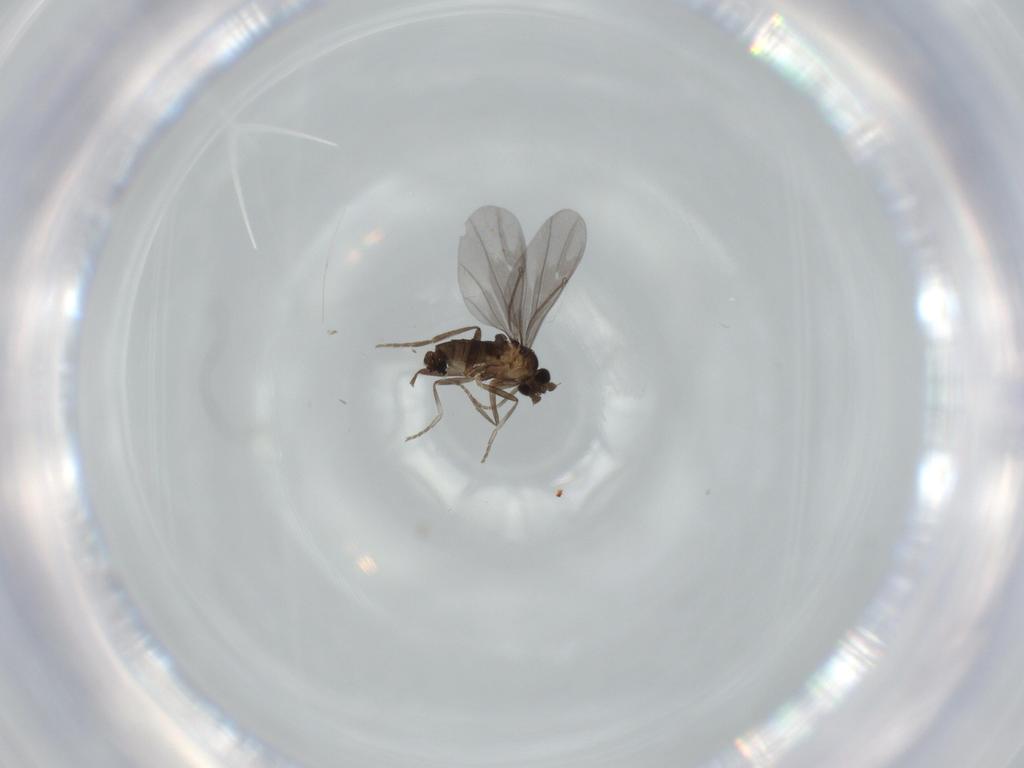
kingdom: Animalia
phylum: Arthropoda
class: Insecta
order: Diptera
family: Phoridae
